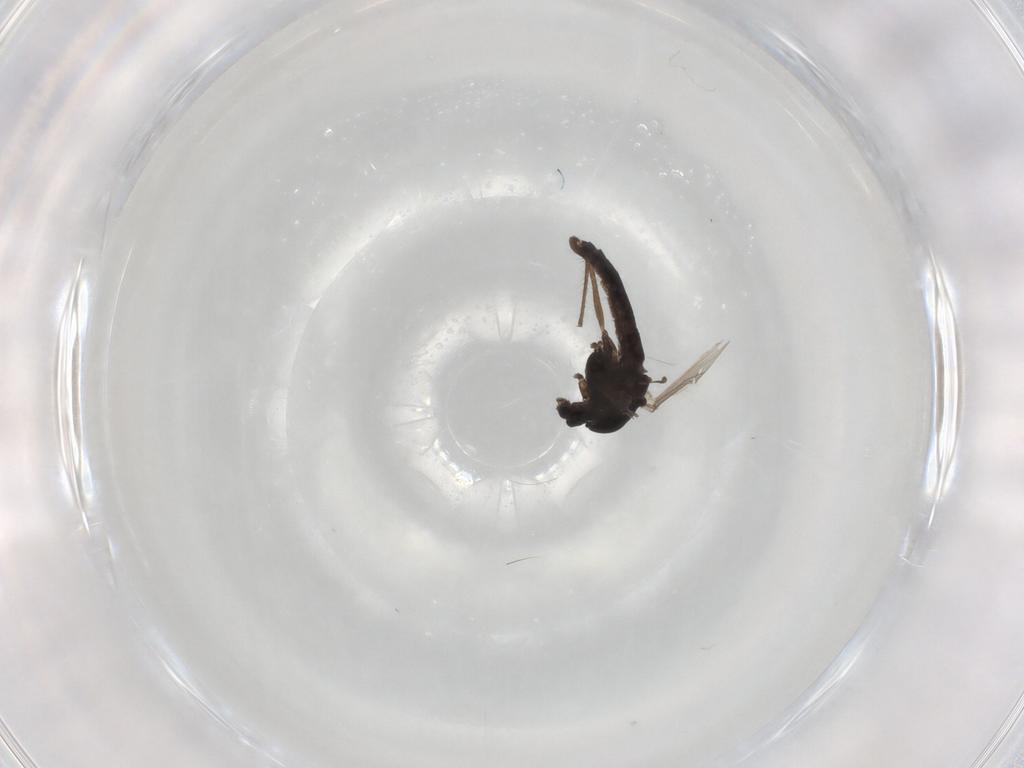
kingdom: Animalia
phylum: Arthropoda
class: Insecta
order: Diptera
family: Chironomidae
